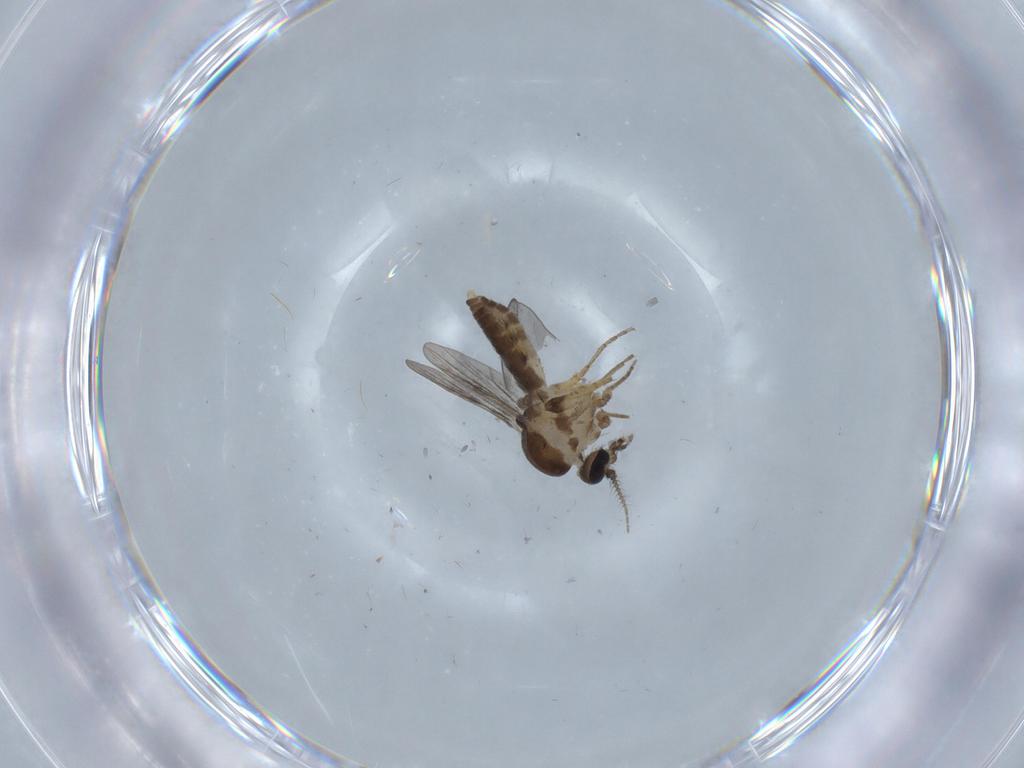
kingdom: Animalia
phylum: Arthropoda
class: Insecta
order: Diptera
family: Ceratopogonidae
